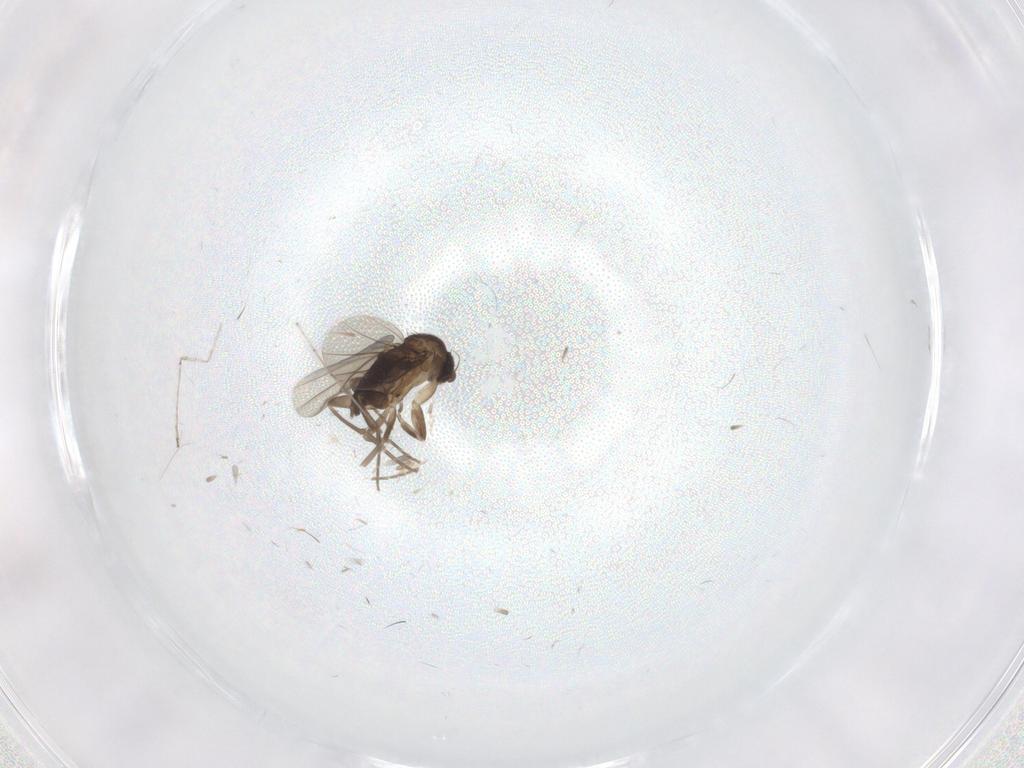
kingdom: Animalia
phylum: Arthropoda
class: Insecta
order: Diptera
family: Cecidomyiidae
